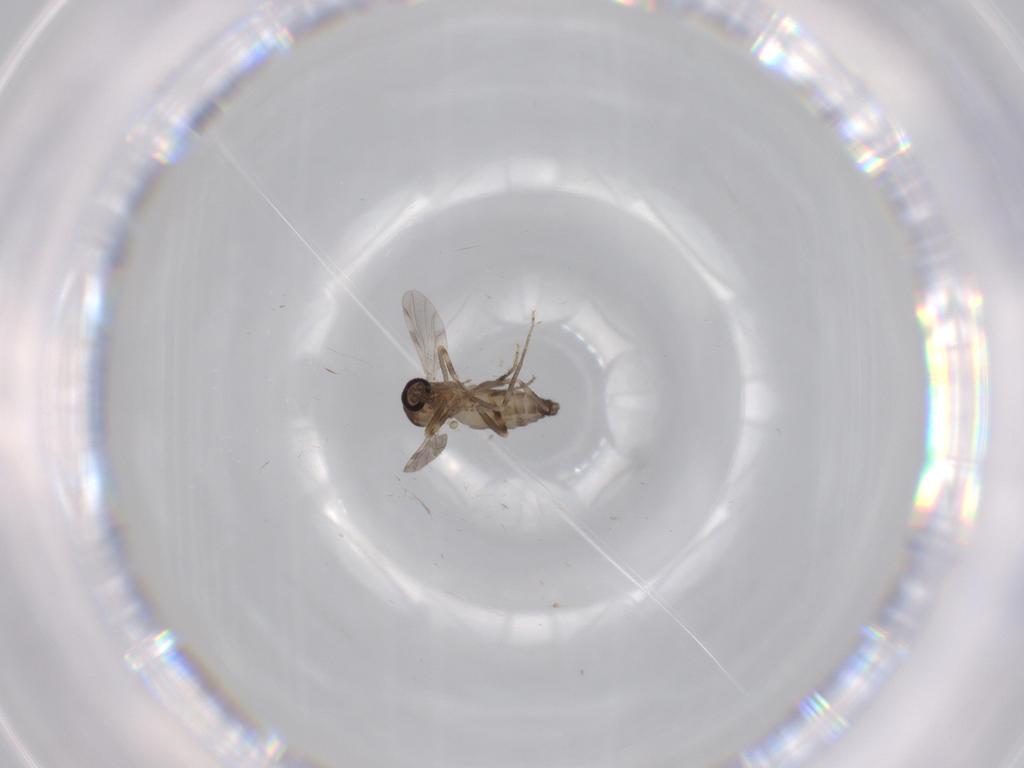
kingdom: Animalia
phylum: Arthropoda
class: Insecta
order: Diptera
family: Ceratopogonidae
